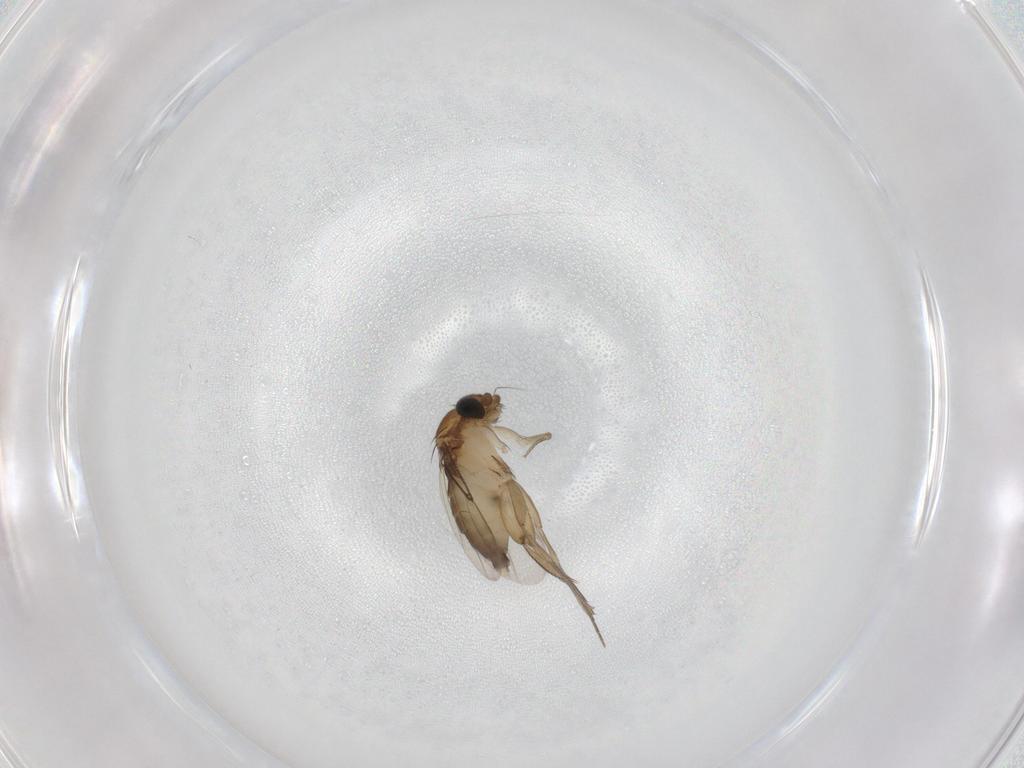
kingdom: Animalia
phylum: Arthropoda
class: Insecta
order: Diptera
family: Phoridae
